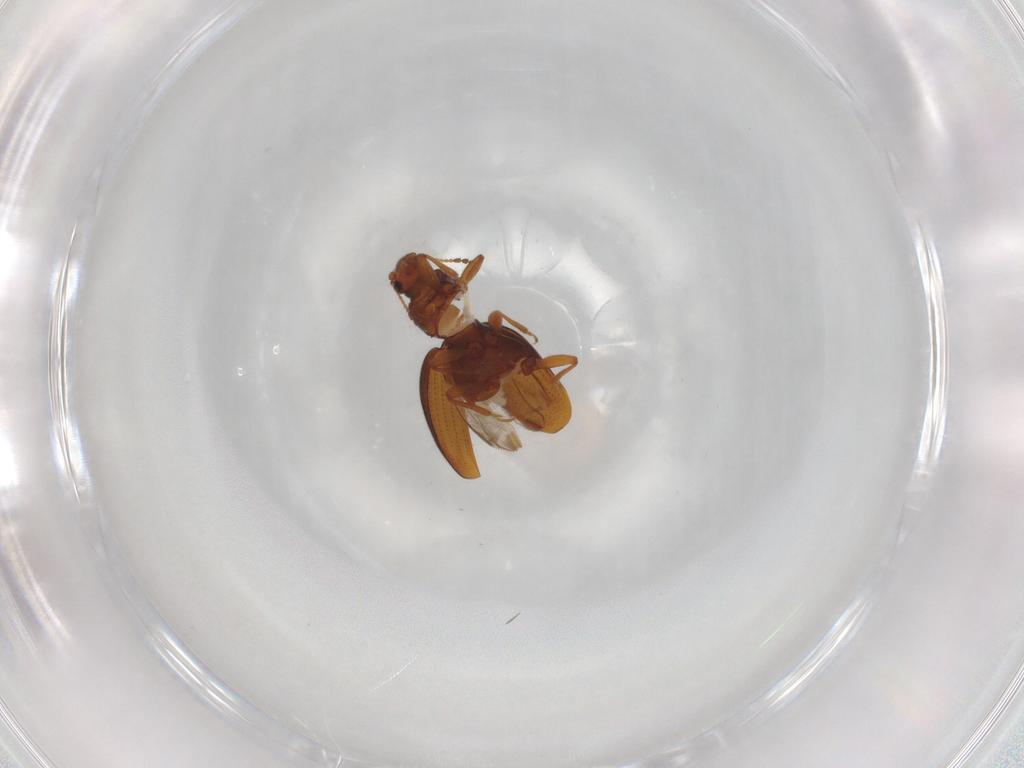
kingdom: Animalia
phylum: Arthropoda
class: Insecta
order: Coleoptera
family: Latridiidae
